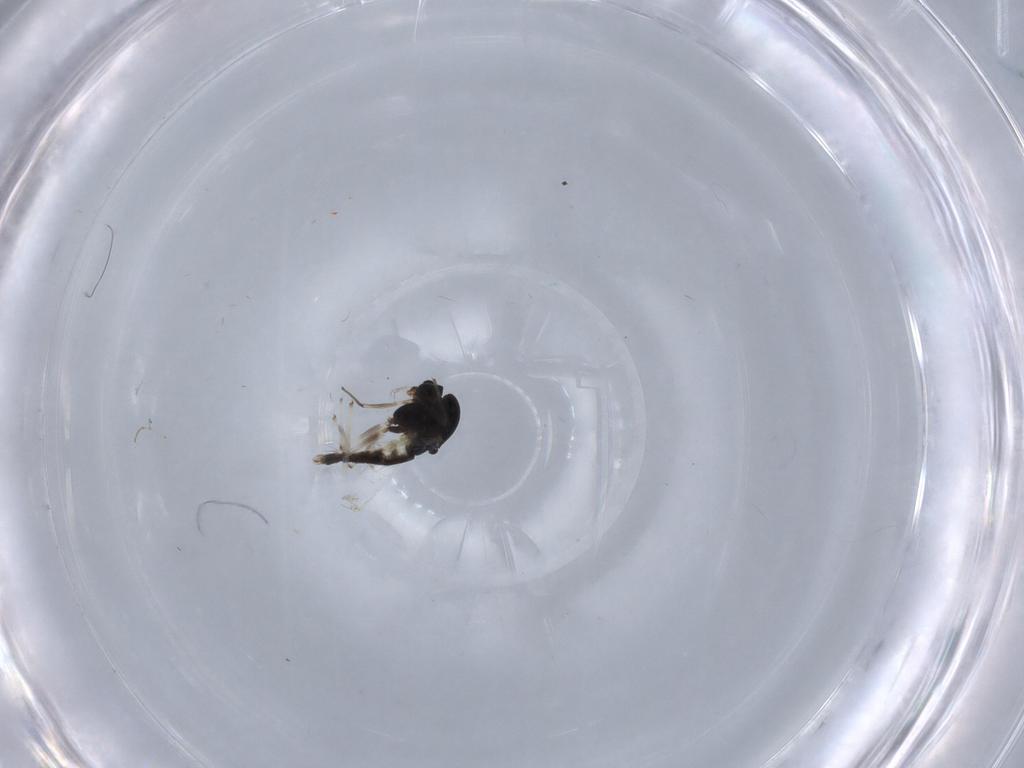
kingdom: Animalia
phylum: Arthropoda
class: Insecta
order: Diptera
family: Chironomidae
